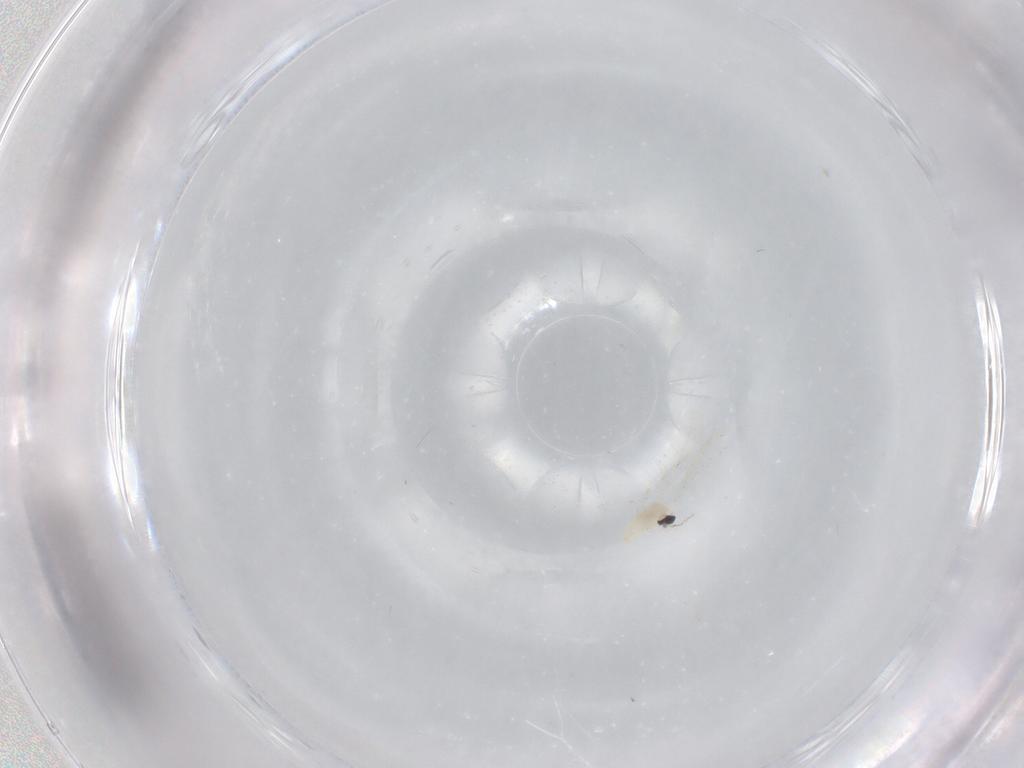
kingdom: Animalia
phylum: Arthropoda
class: Insecta
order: Diptera
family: Cecidomyiidae
